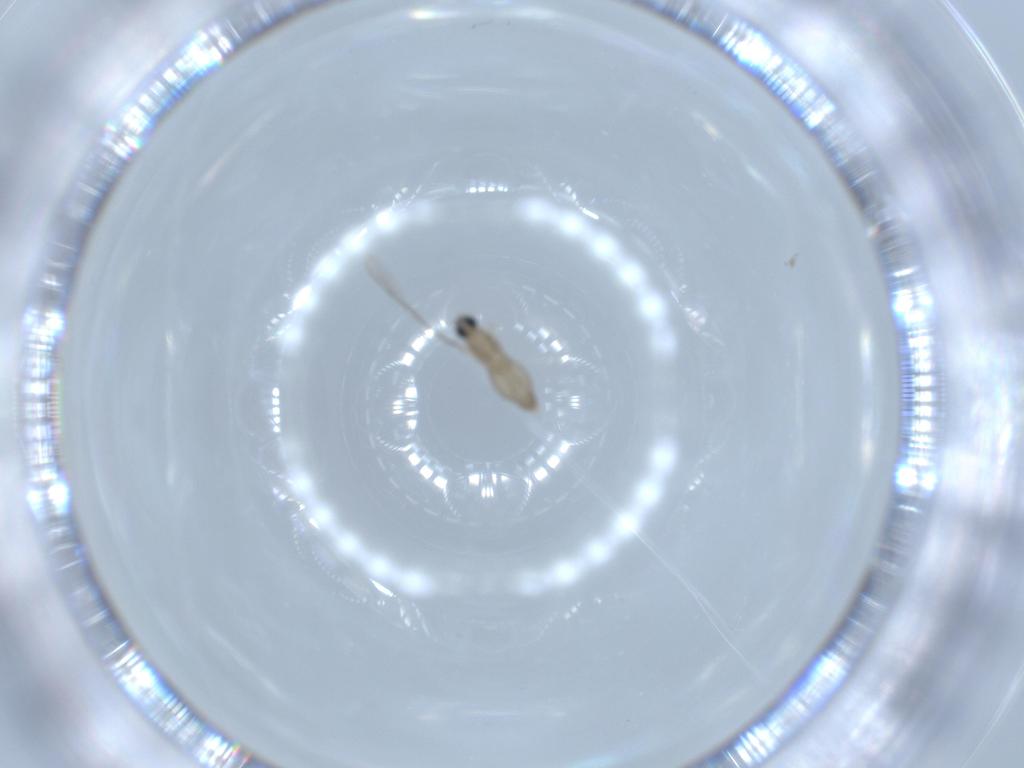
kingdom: Animalia
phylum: Arthropoda
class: Insecta
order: Diptera
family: Cecidomyiidae
